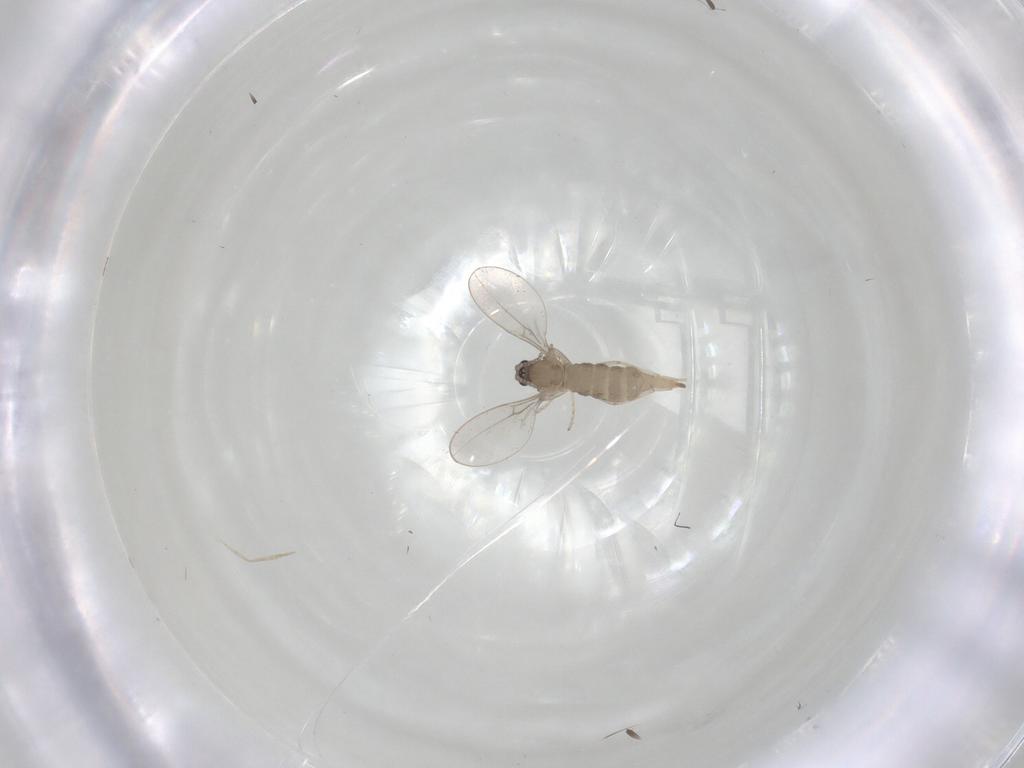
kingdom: Animalia
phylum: Arthropoda
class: Insecta
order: Diptera
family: Cecidomyiidae
